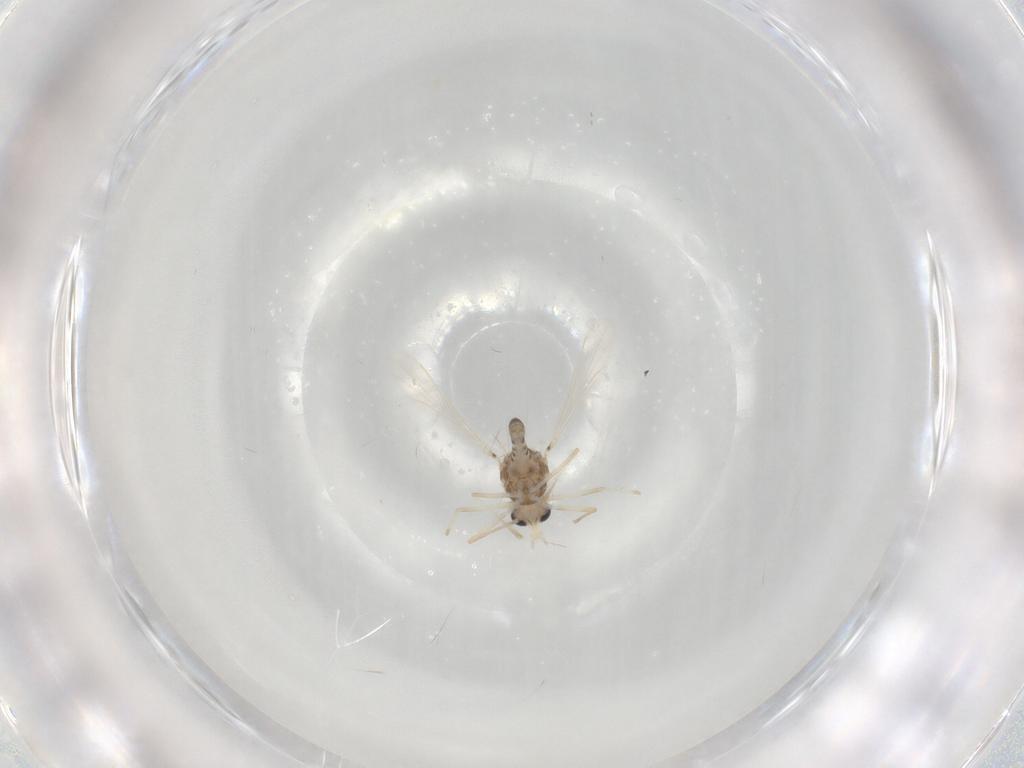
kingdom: Animalia
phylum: Arthropoda
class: Insecta
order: Diptera
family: Chironomidae
